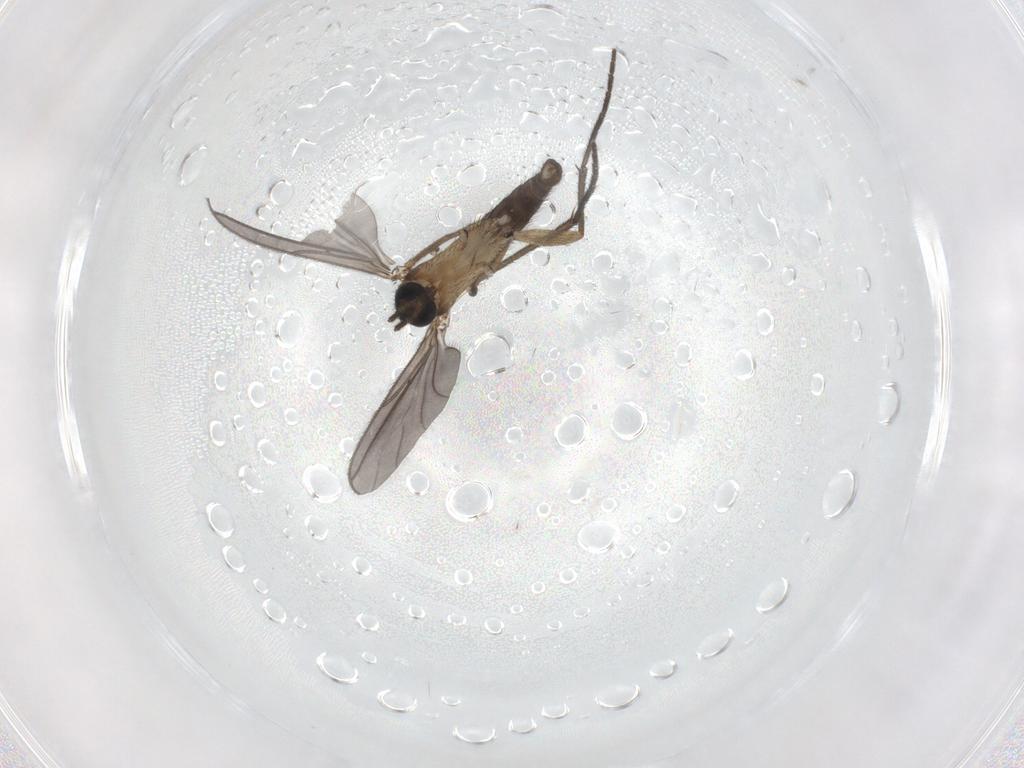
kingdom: Animalia
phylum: Arthropoda
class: Insecta
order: Diptera
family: Sciaridae
